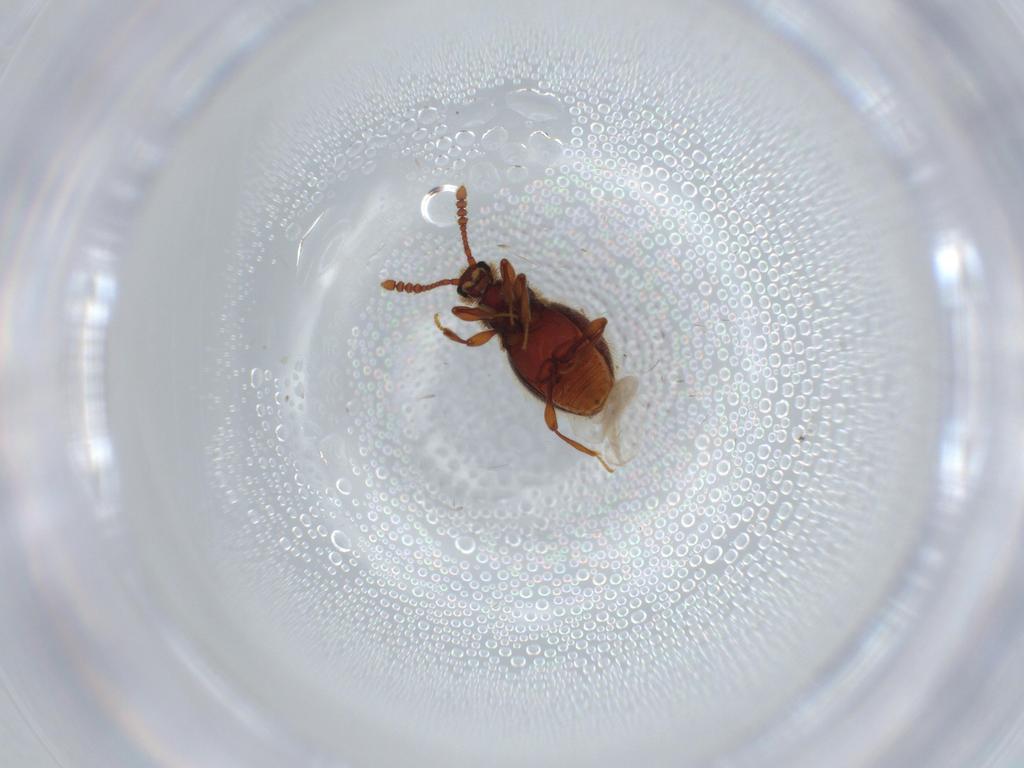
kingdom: Animalia
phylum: Arthropoda
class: Insecta
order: Coleoptera
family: Staphylinidae
